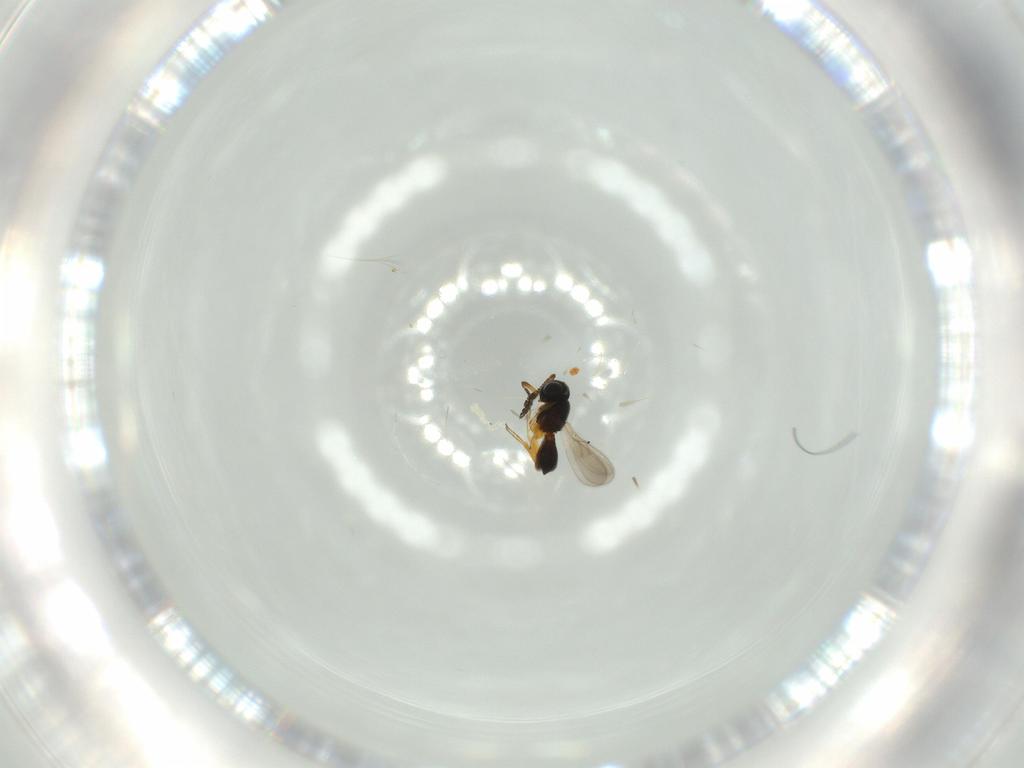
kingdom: Animalia
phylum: Arthropoda
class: Insecta
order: Hymenoptera
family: Scelionidae
